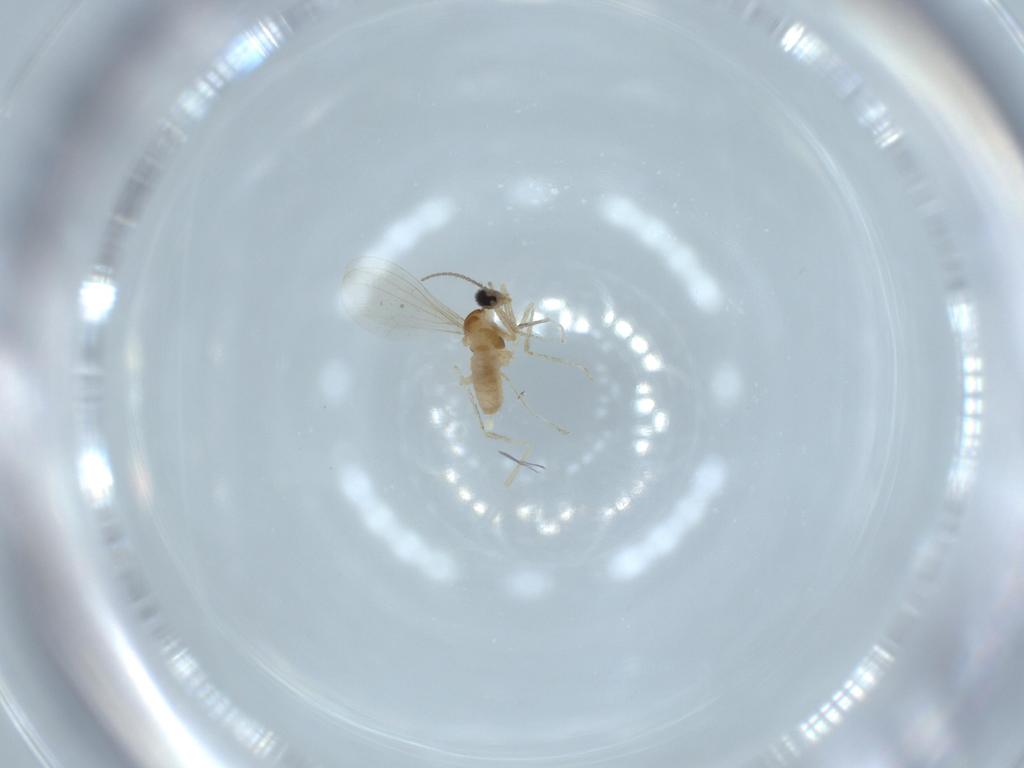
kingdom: Animalia
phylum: Arthropoda
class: Insecta
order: Diptera
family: Cecidomyiidae
